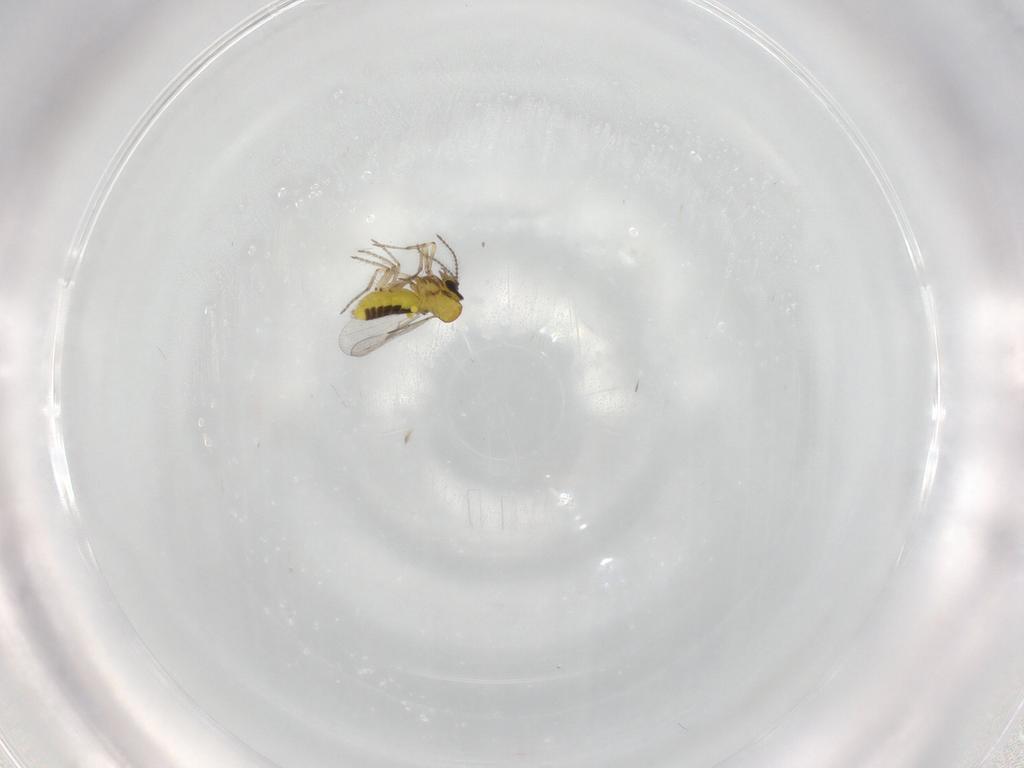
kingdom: Animalia
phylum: Arthropoda
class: Insecta
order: Diptera
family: Ceratopogonidae
